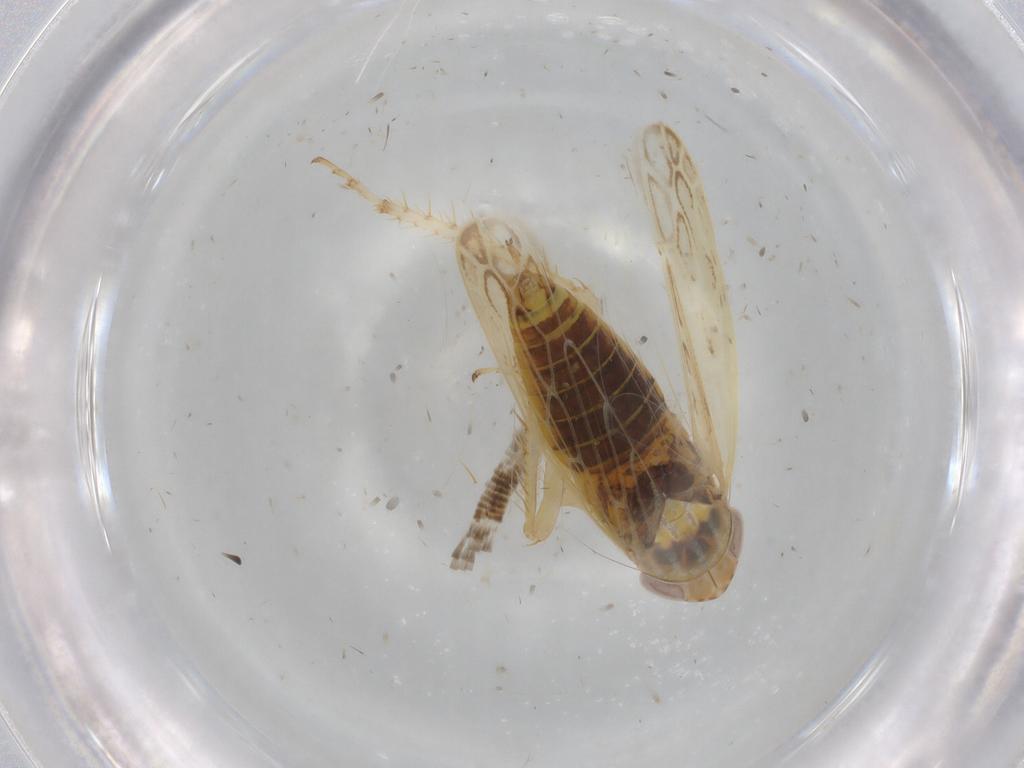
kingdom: Animalia
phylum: Arthropoda
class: Insecta
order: Hemiptera
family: Cicadellidae
